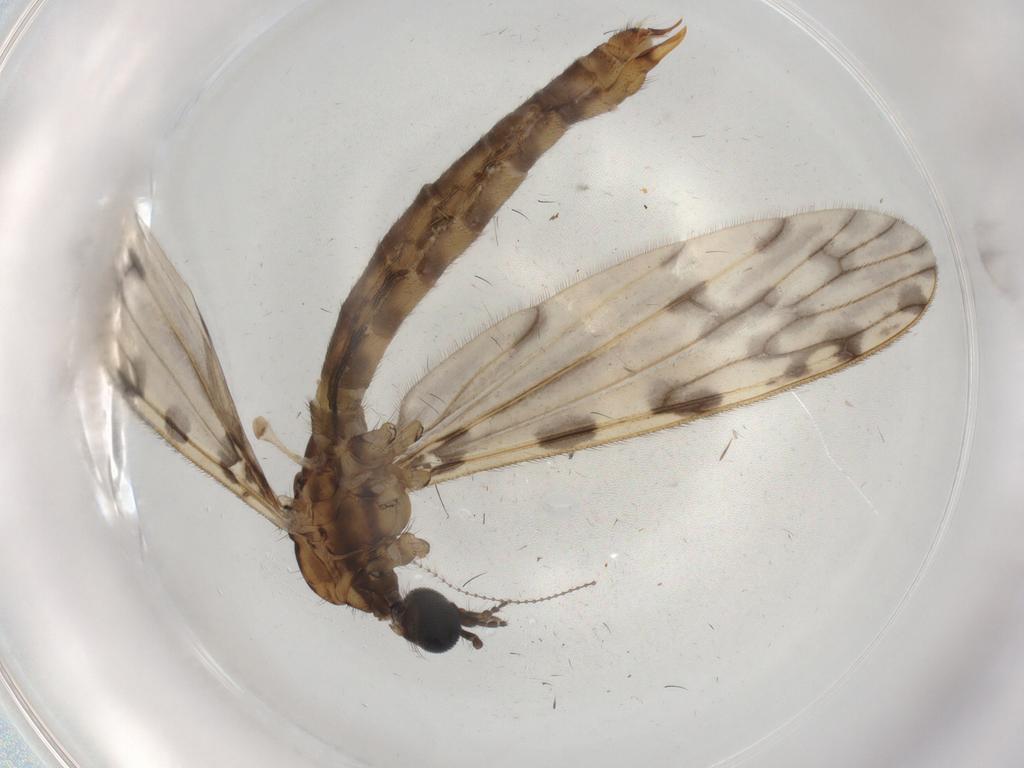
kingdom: Animalia
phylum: Arthropoda
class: Insecta
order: Diptera
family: Limoniidae
